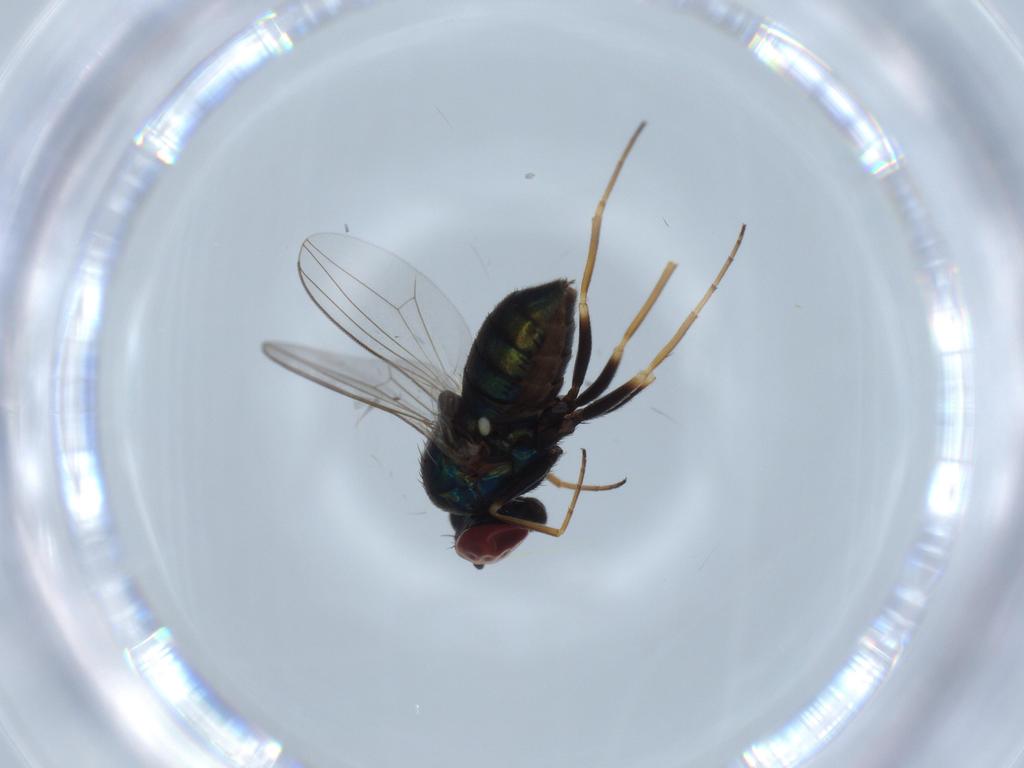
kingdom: Animalia
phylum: Arthropoda
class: Insecta
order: Diptera
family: Dolichopodidae
